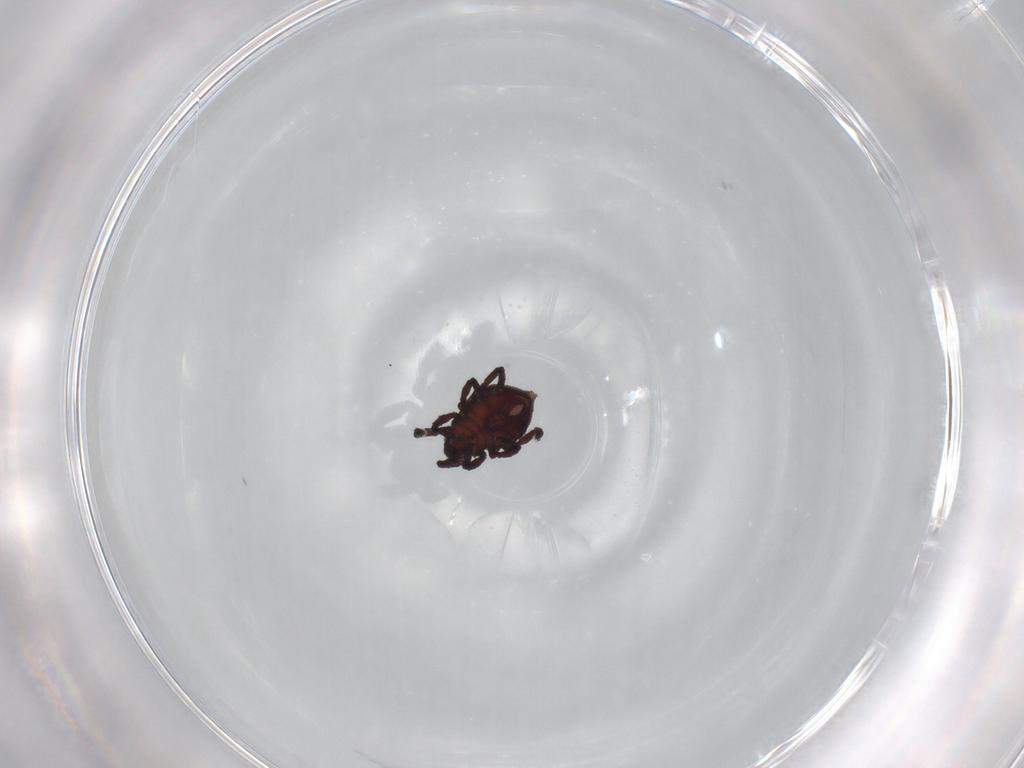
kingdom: Animalia
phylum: Arthropoda
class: Arachnida
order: Sarcoptiformes
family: Neoliodidae
